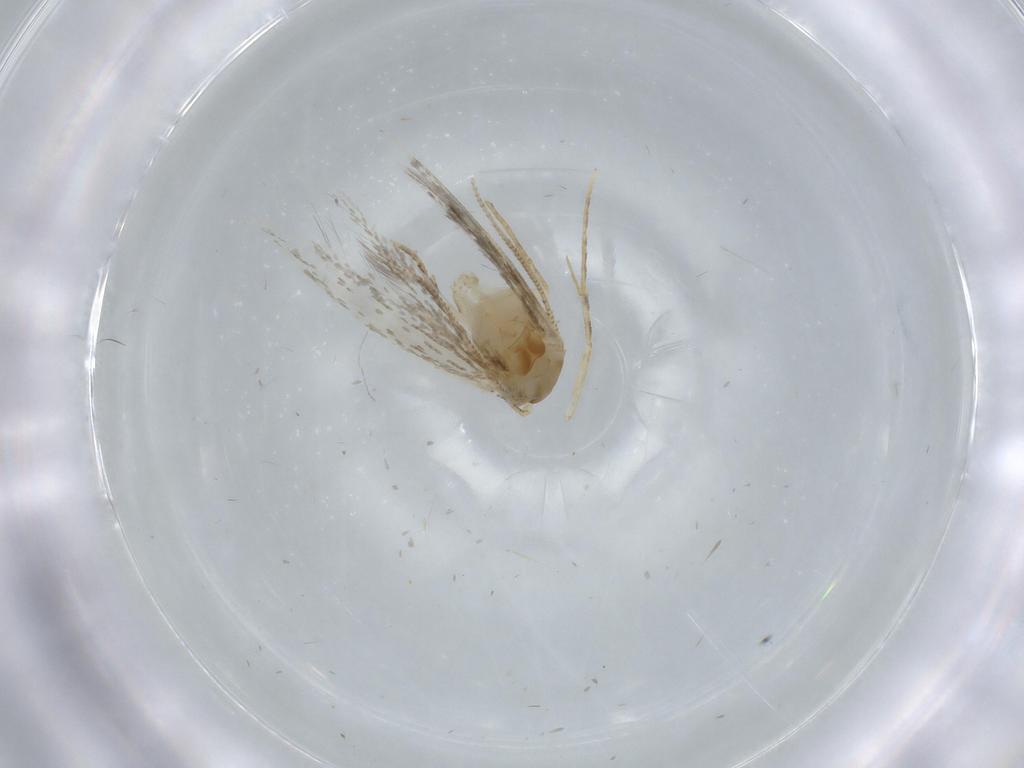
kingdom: Animalia
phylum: Arthropoda
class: Insecta
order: Lepidoptera
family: Tineidae
